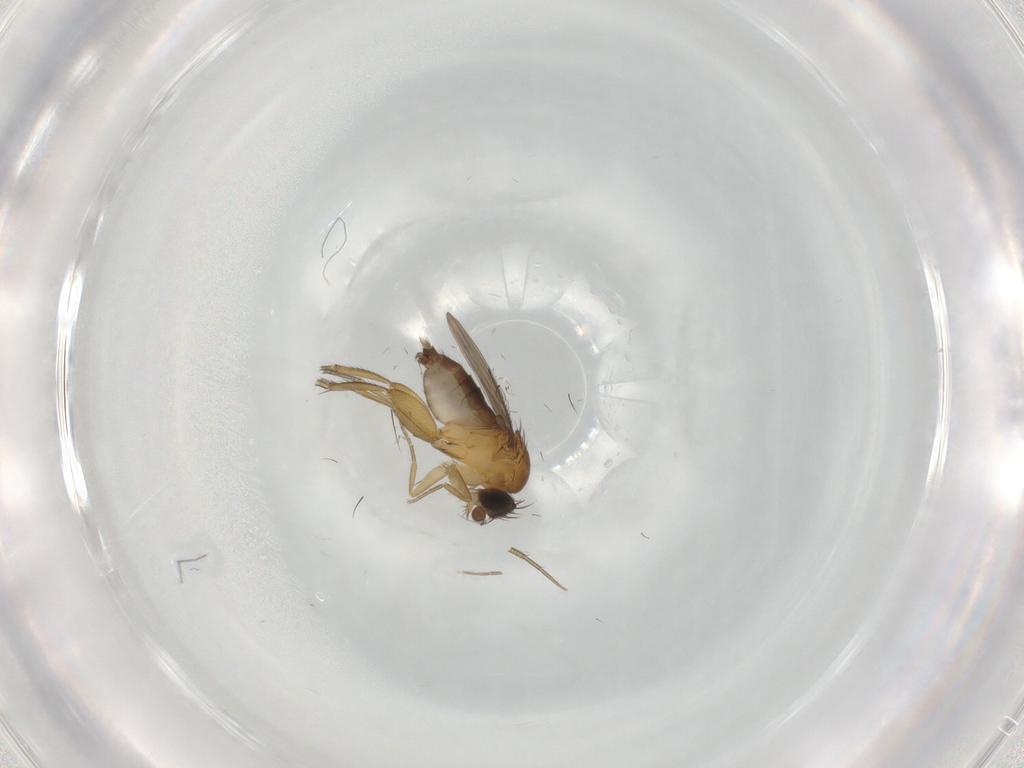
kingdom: Animalia
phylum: Arthropoda
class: Insecta
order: Diptera
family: Phoridae
